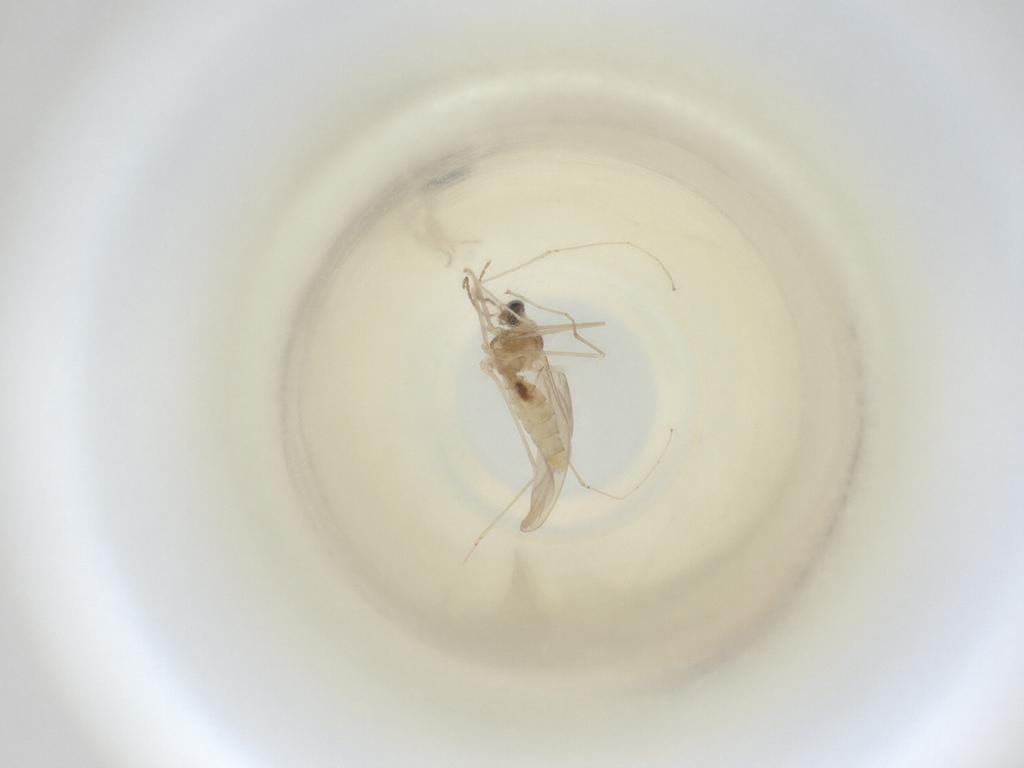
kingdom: Animalia
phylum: Arthropoda
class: Insecta
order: Diptera
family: Cecidomyiidae
